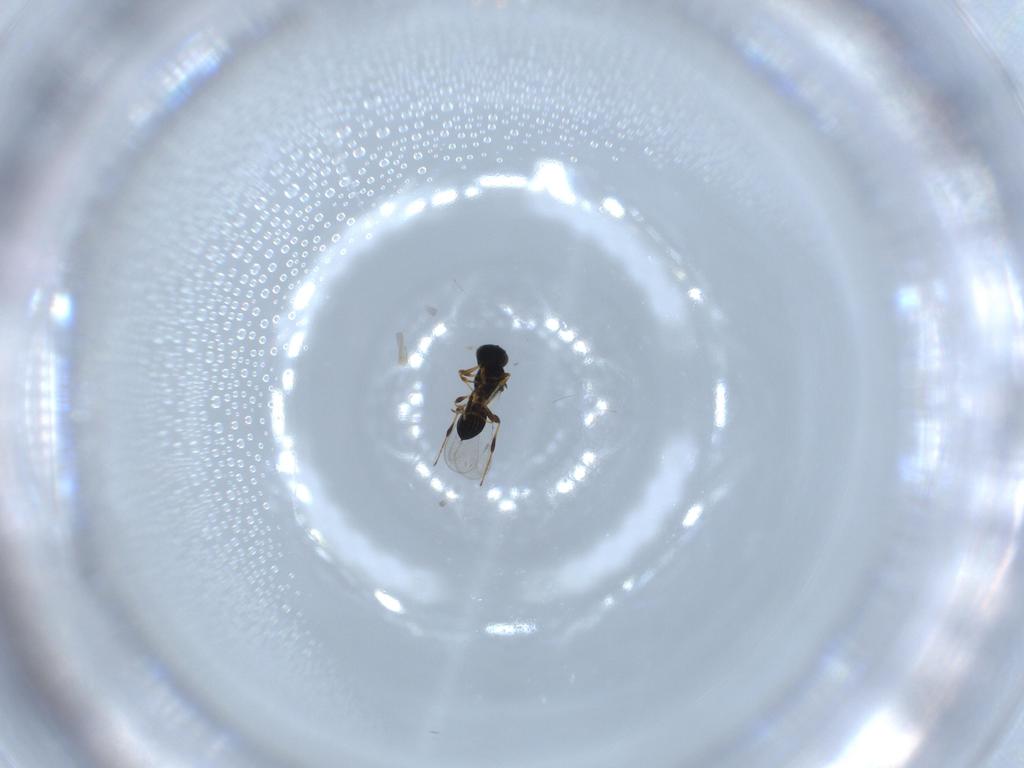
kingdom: Animalia
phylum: Arthropoda
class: Insecta
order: Hymenoptera
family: Platygastridae
